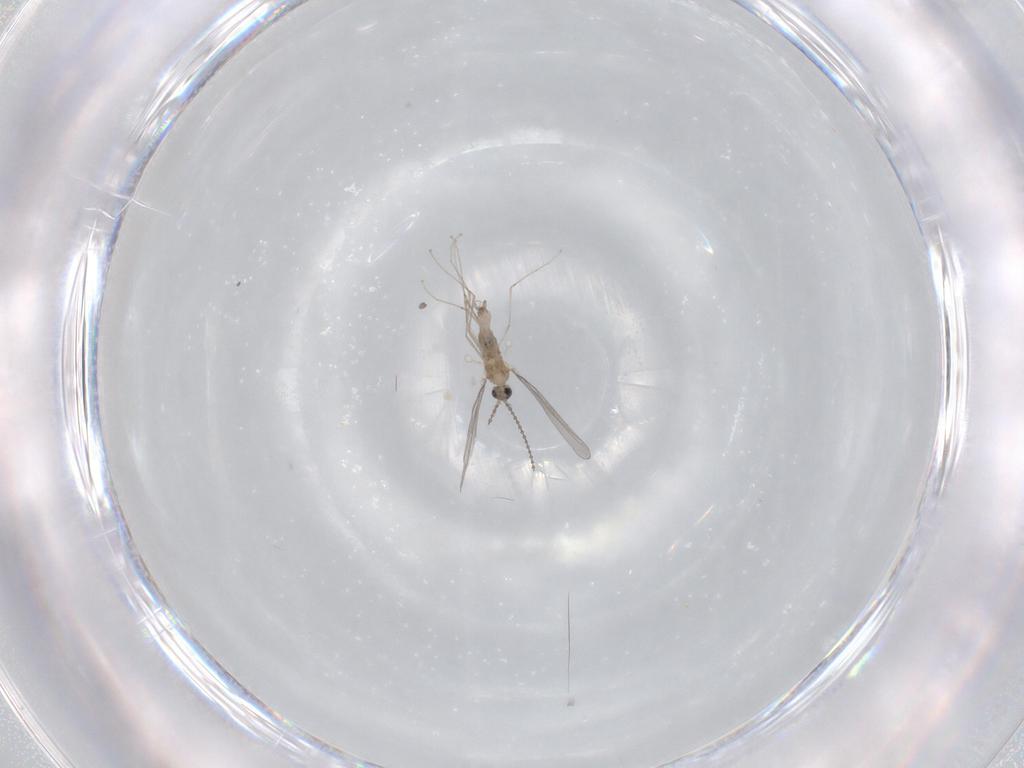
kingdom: Animalia
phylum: Arthropoda
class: Insecta
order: Diptera
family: Cecidomyiidae
